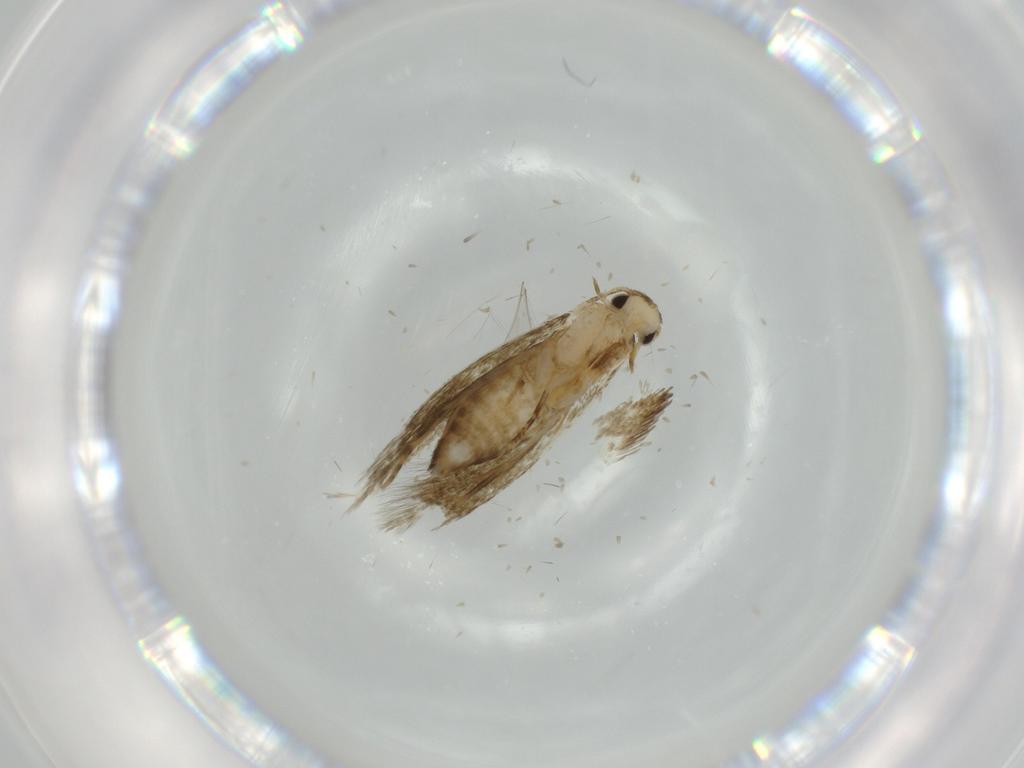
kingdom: Animalia
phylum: Arthropoda
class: Insecta
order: Lepidoptera
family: Tineidae
